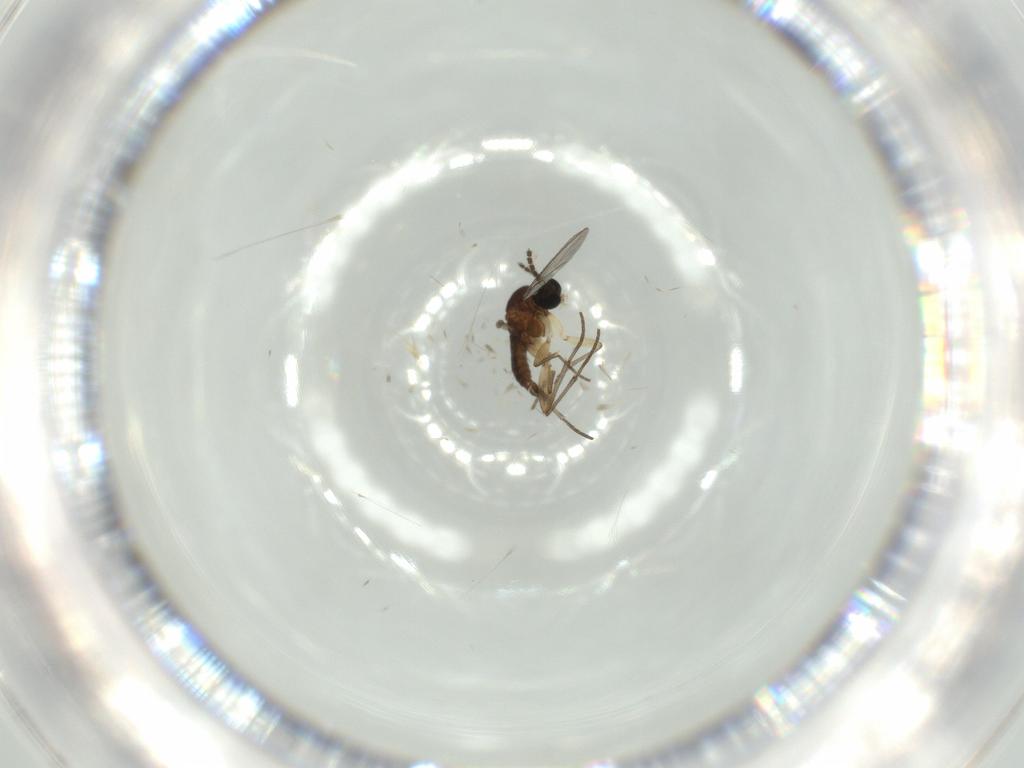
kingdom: Animalia
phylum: Arthropoda
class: Insecta
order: Diptera
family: Sciaridae
